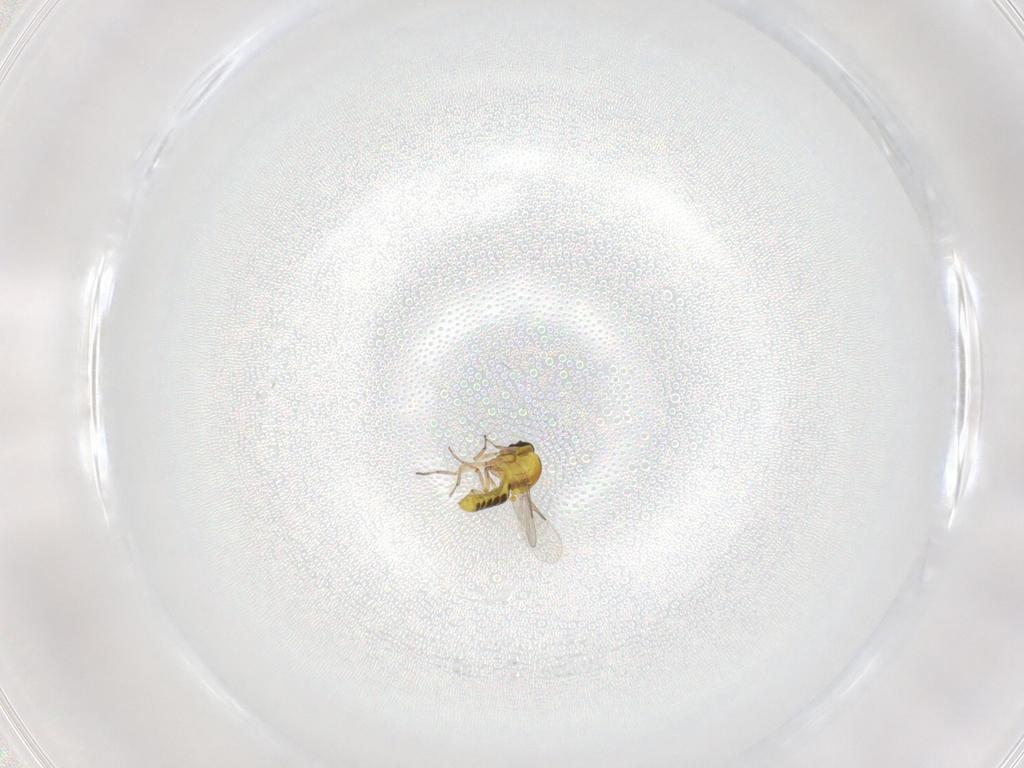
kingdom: Animalia
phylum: Arthropoda
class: Insecta
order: Diptera
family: Ceratopogonidae
